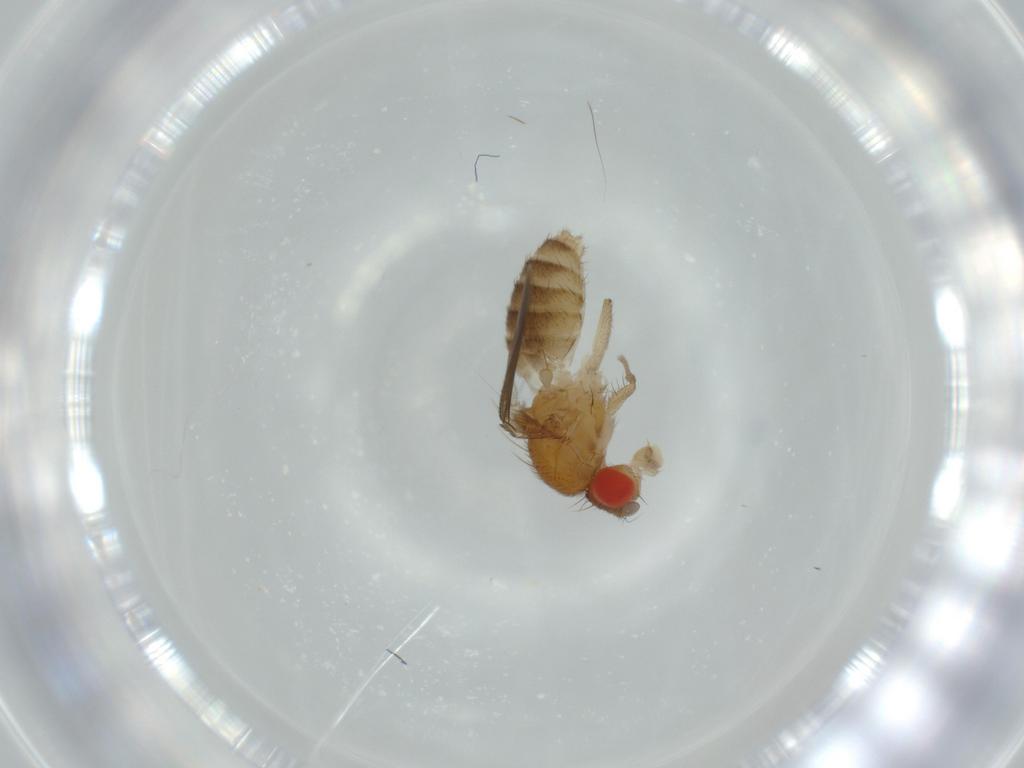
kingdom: Animalia
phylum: Arthropoda
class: Insecta
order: Diptera
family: Drosophilidae
